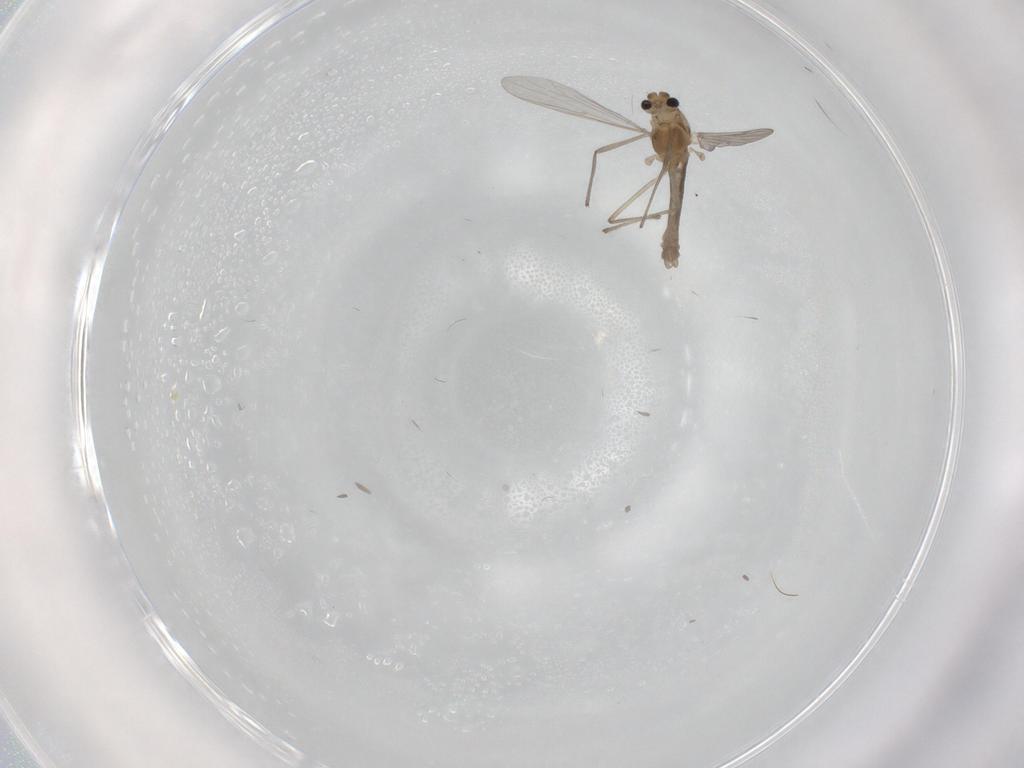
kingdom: Animalia
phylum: Arthropoda
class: Insecta
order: Diptera
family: Chironomidae
